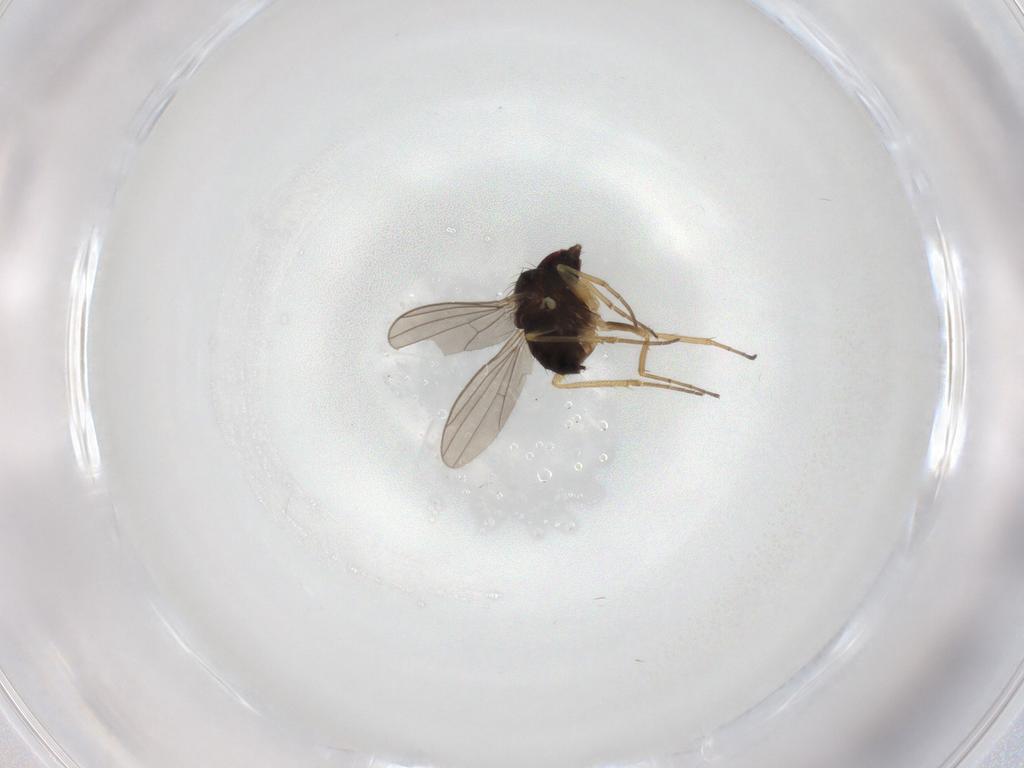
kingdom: Animalia
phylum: Arthropoda
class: Insecta
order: Diptera
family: Dolichopodidae
